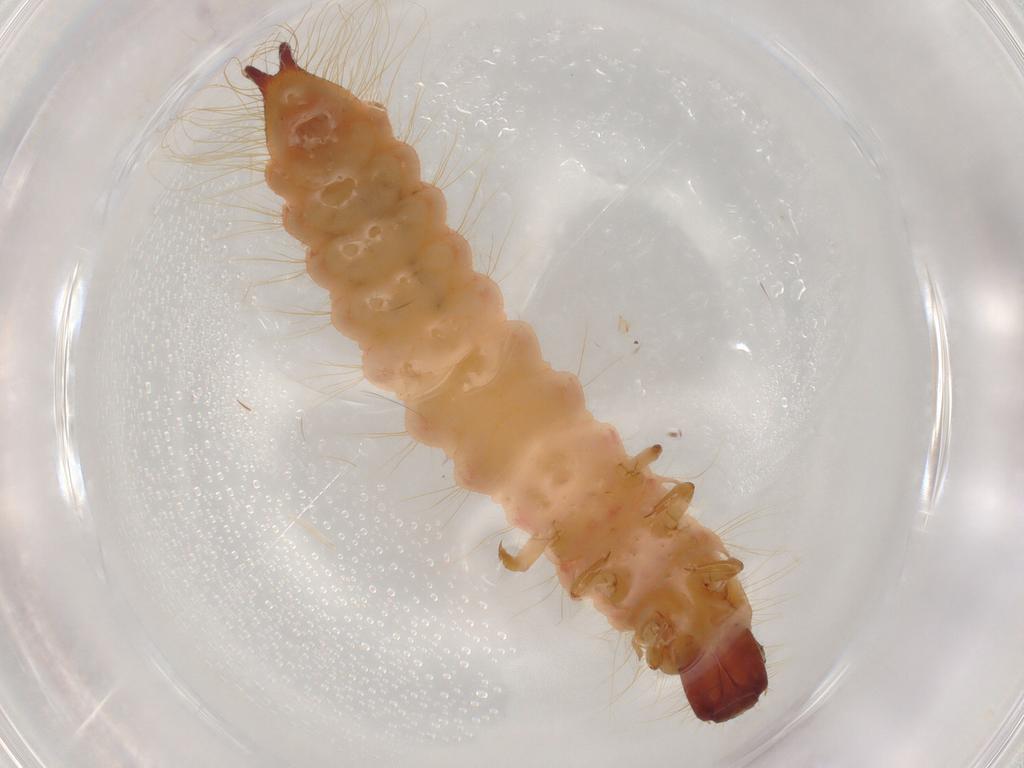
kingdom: Animalia
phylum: Arthropoda
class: Insecta
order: Coleoptera
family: Cleridae
